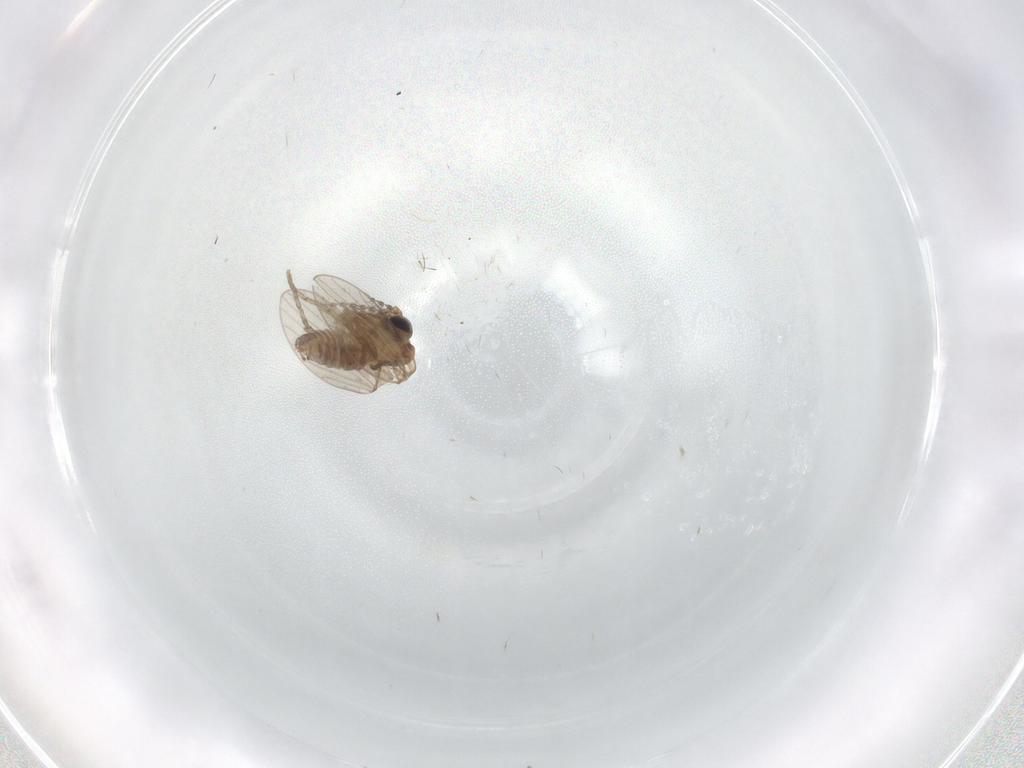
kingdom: Animalia
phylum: Arthropoda
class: Insecta
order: Diptera
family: Psychodidae
